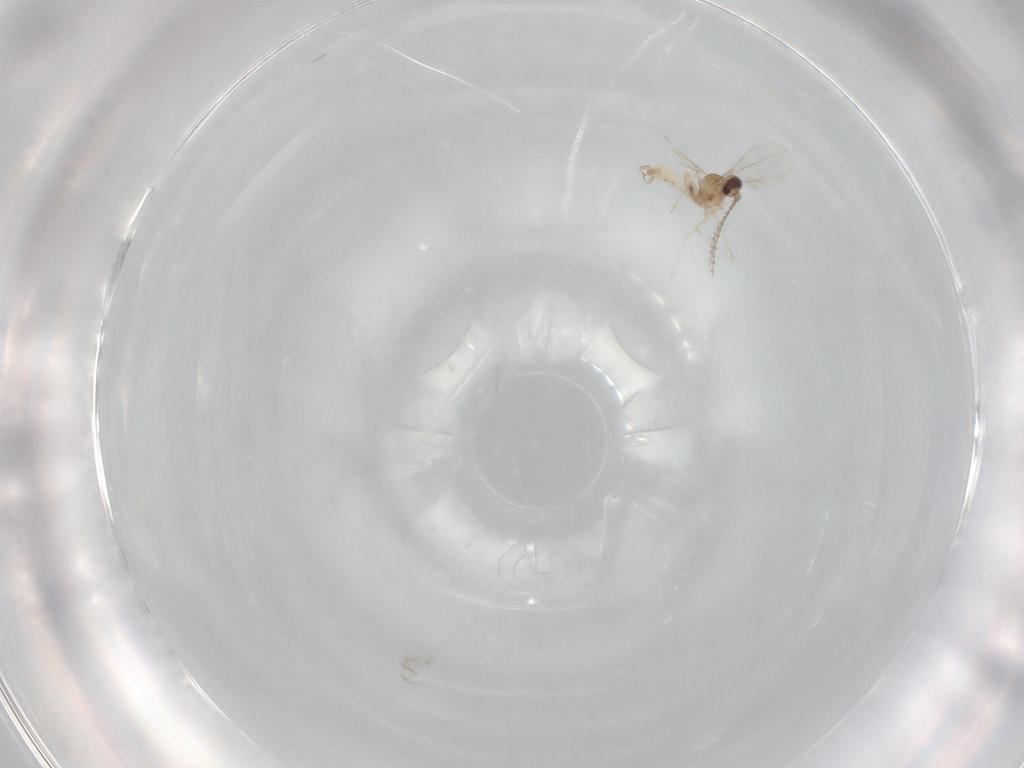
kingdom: Animalia
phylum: Arthropoda
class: Insecta
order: Diptera
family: Cecidomyiidae
